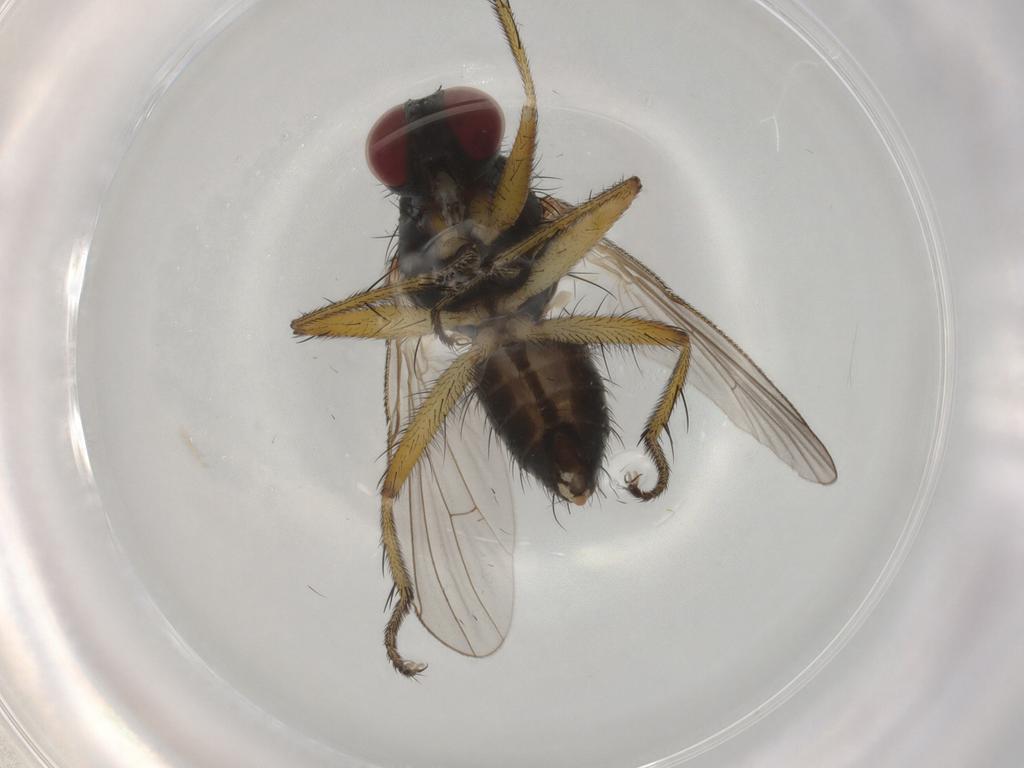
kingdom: Animalia
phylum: Arthropoda
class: Insecta
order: Diptera
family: Muscidae
